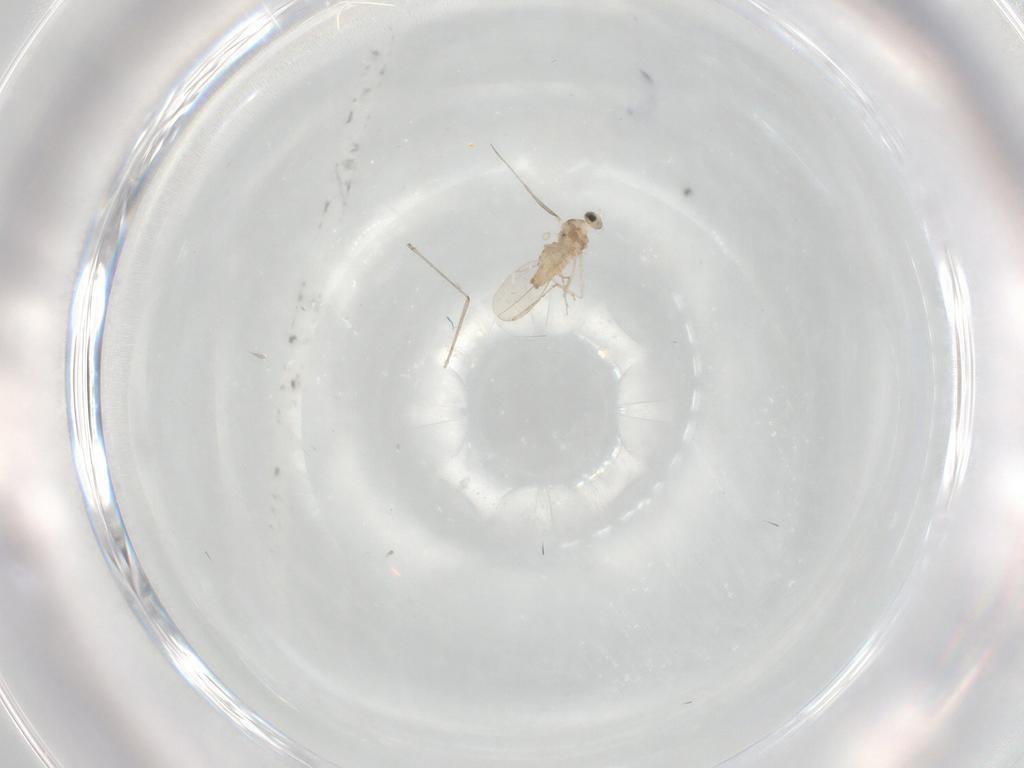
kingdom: Animalia
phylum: Arthropoda
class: Insecta
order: Diptera
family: Cecidomyiidae
